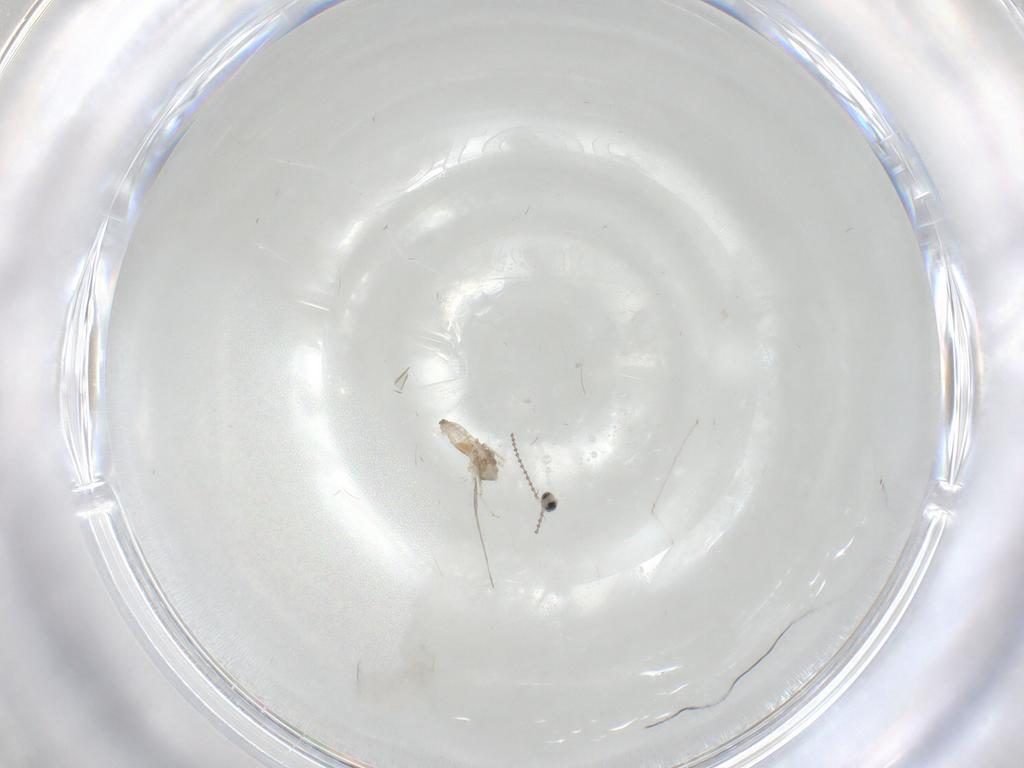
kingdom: Animalia
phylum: Arthropoda
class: Insecta
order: Diptera
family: Cecidomyiidae
